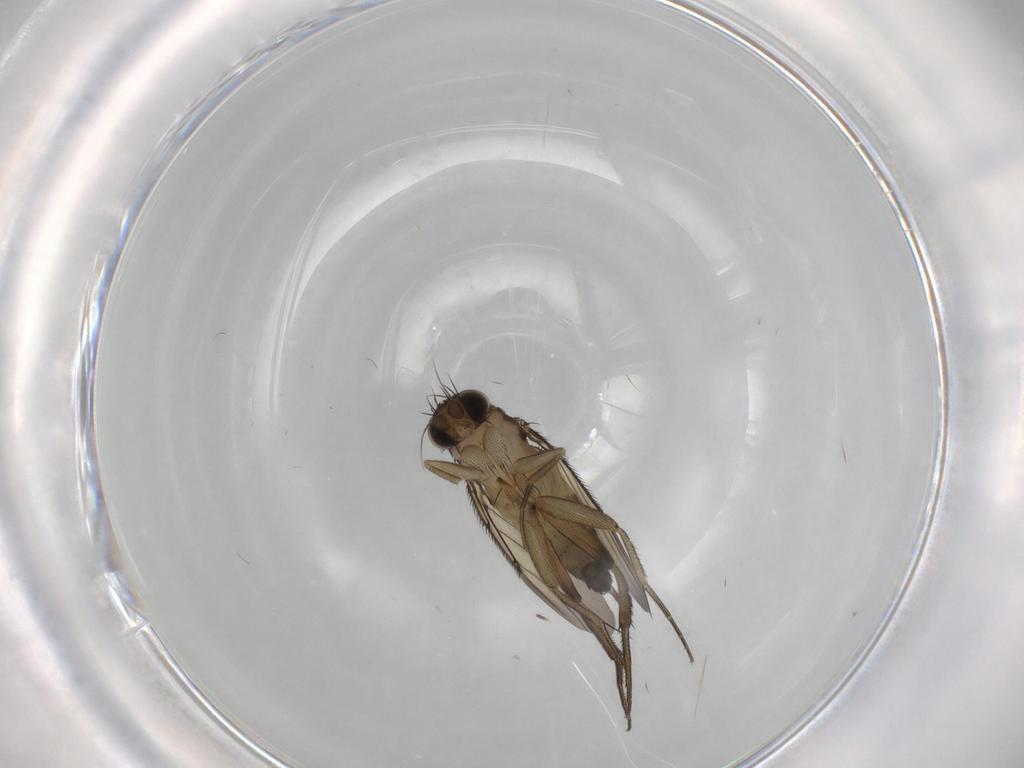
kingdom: Animalia
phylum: Arthropoda
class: Insecta
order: Diptera
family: Phoridae
